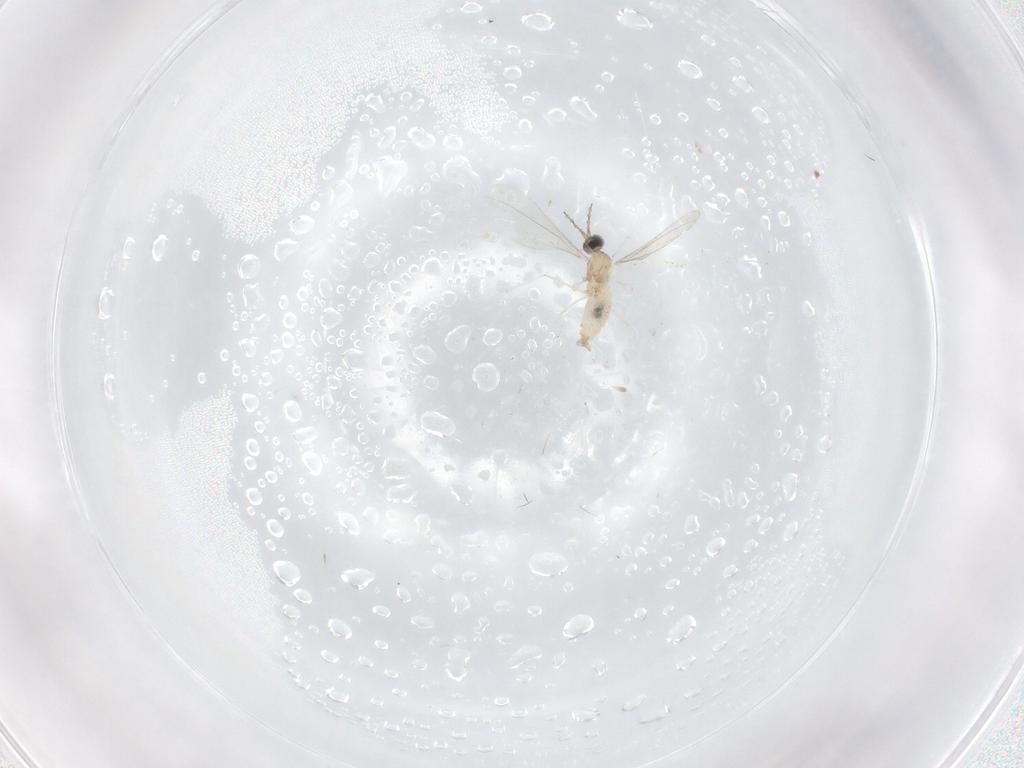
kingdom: Animalia
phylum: Arthropoda
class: Insecta
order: Diptera
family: Cecidomyiidae
